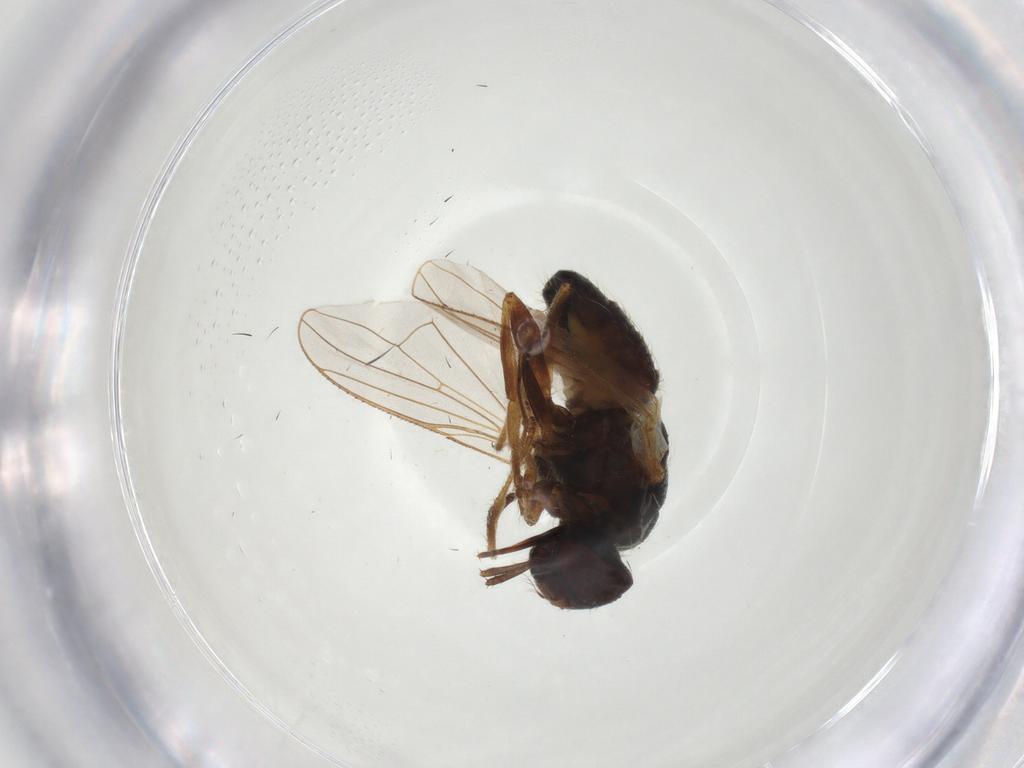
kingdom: Animalia
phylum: Arthropoda
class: Insecta
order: Diptera
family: Muscidae
